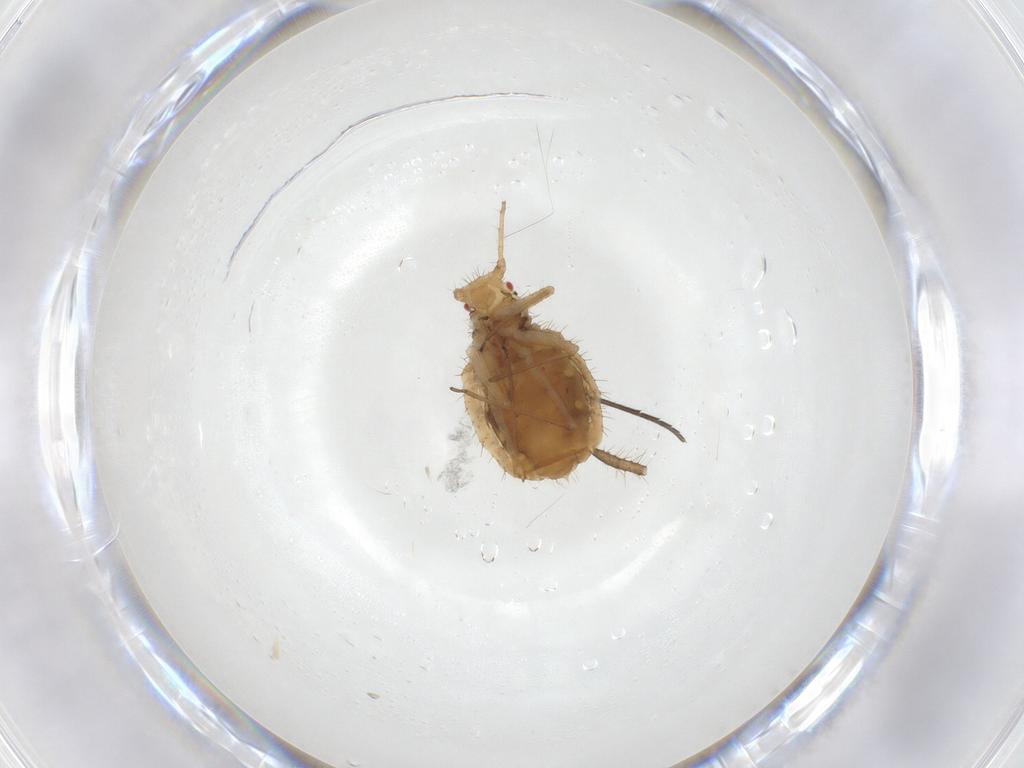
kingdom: Animalia
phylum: Arthropoda
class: Insecta
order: Hemiptera
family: Aphididae
